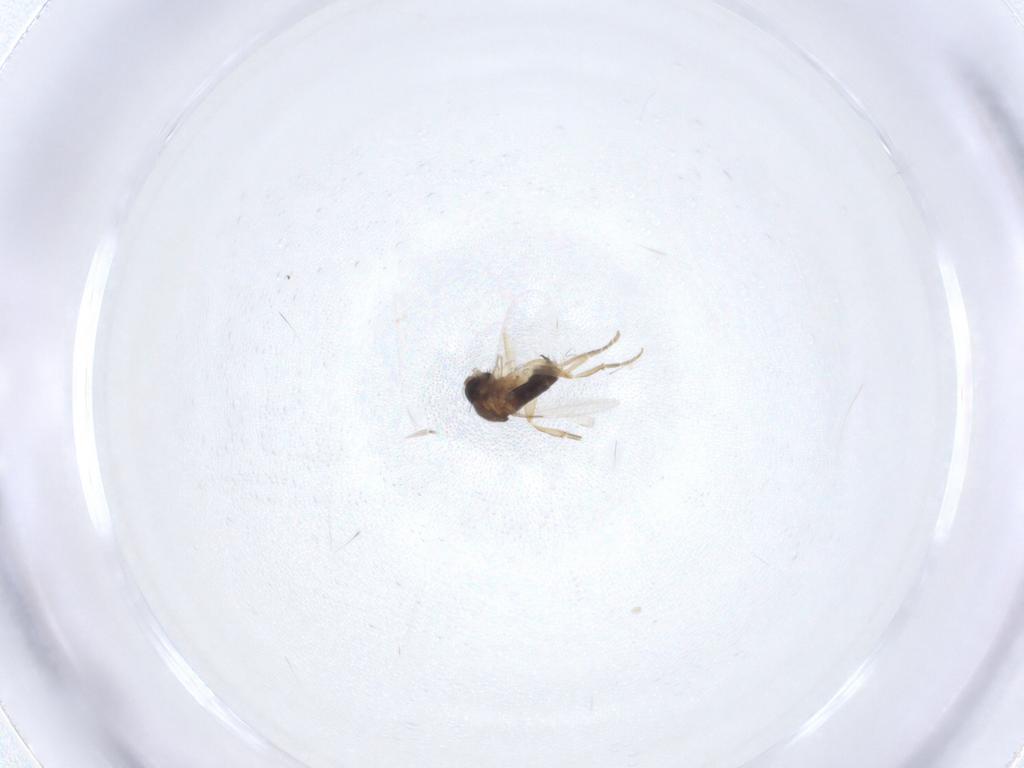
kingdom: Animalia
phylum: Arthropoda
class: Insecta
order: Diptera
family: Phoridae
